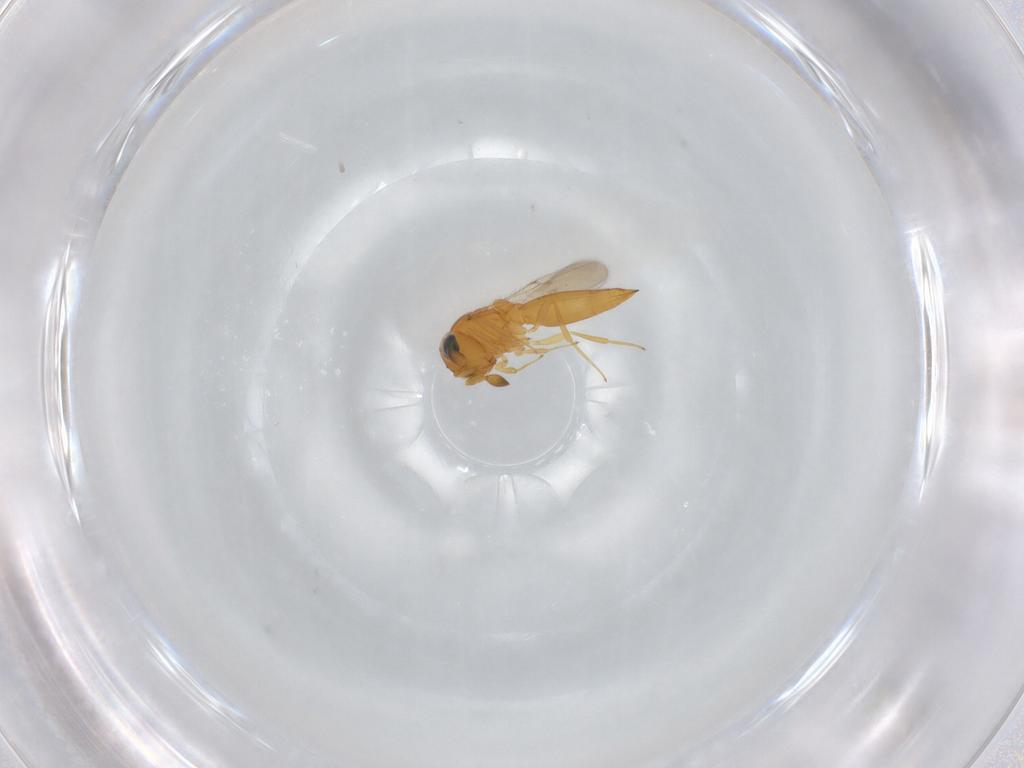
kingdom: Animalia
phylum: Arthropoda
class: Insecta
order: Hymenoptera
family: Scelionidae
